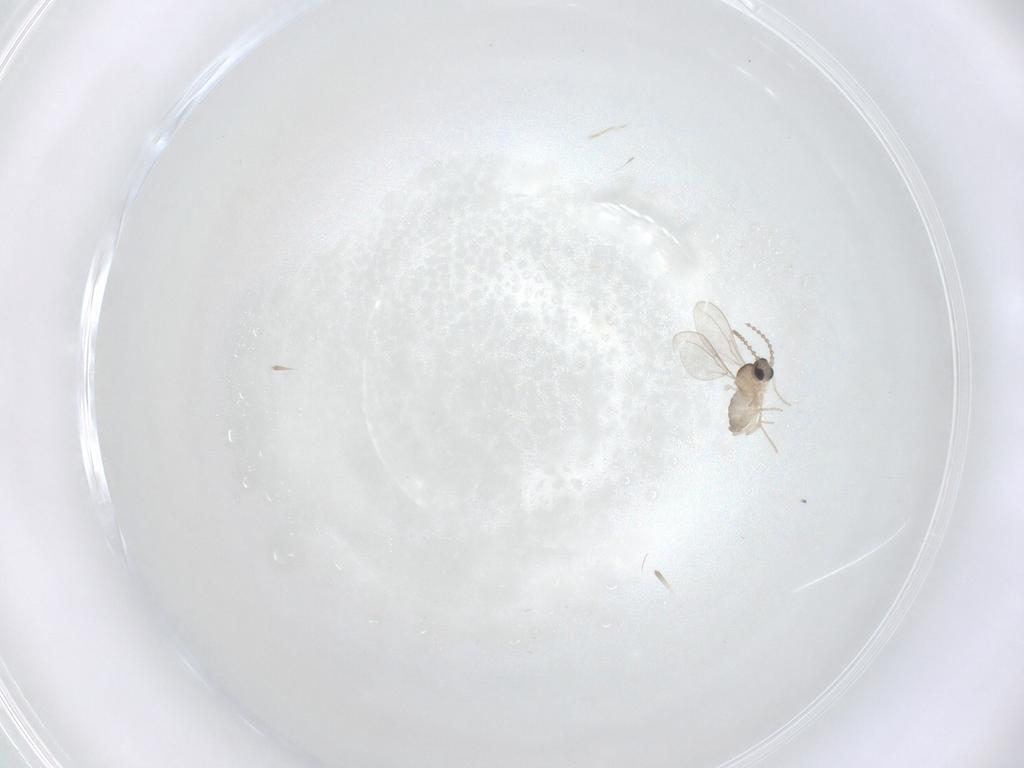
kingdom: Animalia
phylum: Arthropoda
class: Insecta
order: Diptera
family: Cecidomyiidae
